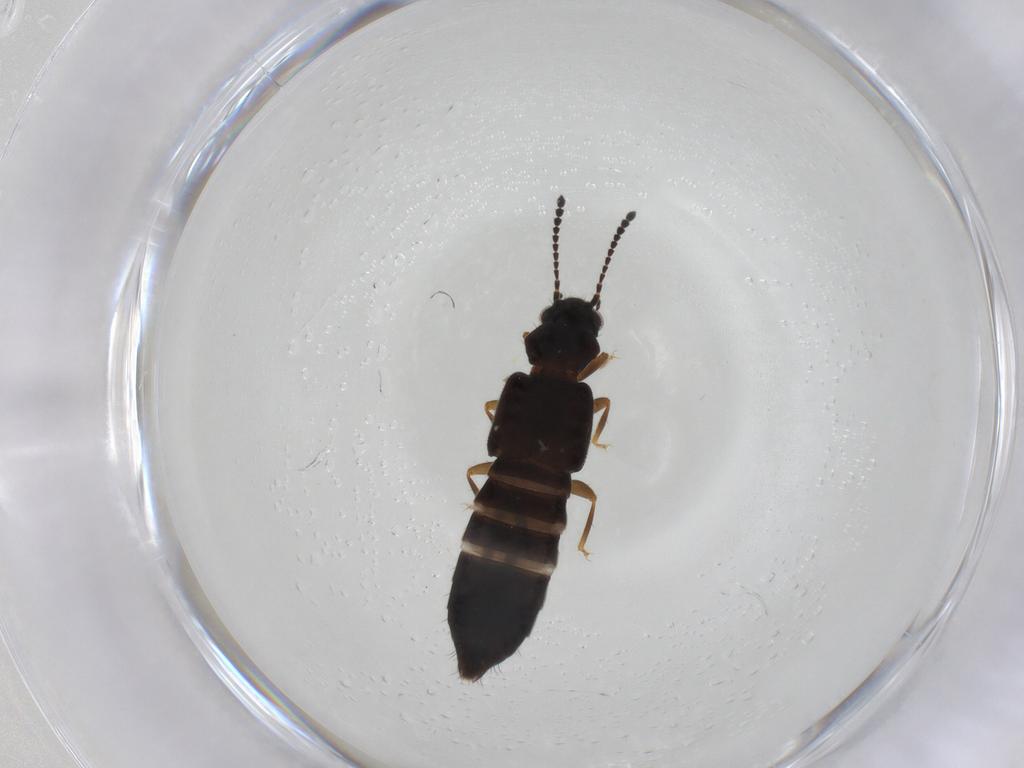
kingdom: Animalia
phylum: Arthropoda
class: Insecta
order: Coleoptera
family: Staphylinidae
